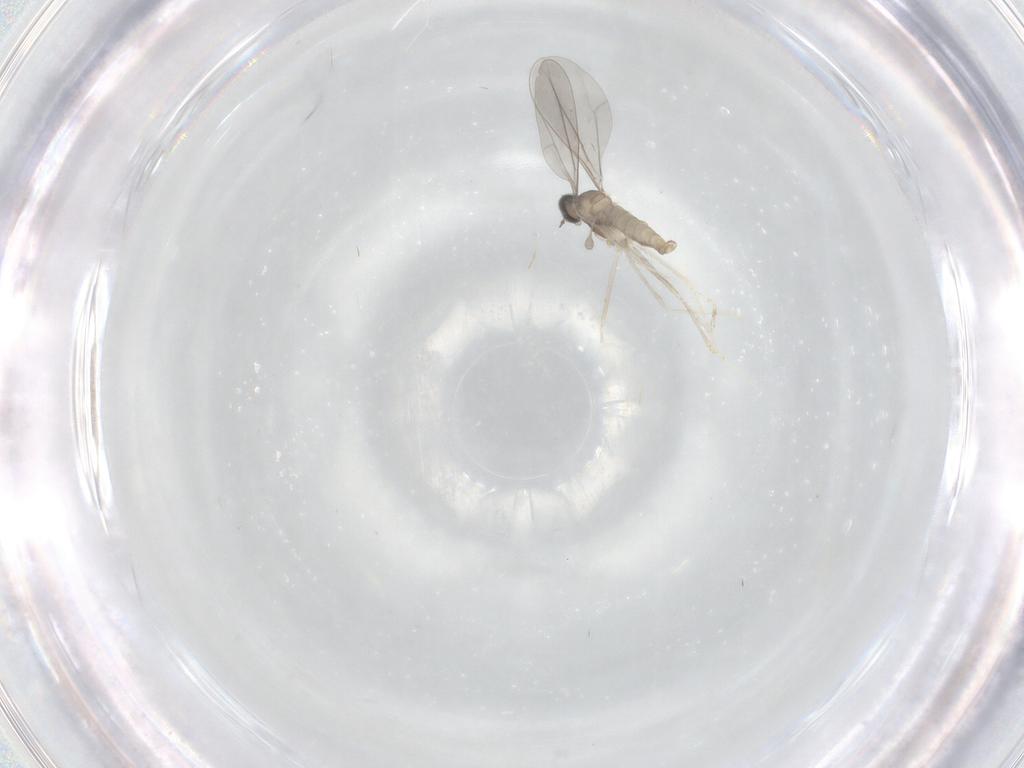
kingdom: Animalia
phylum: Arthropoda
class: Insecta
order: Diptera
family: Cecidomyiidae
